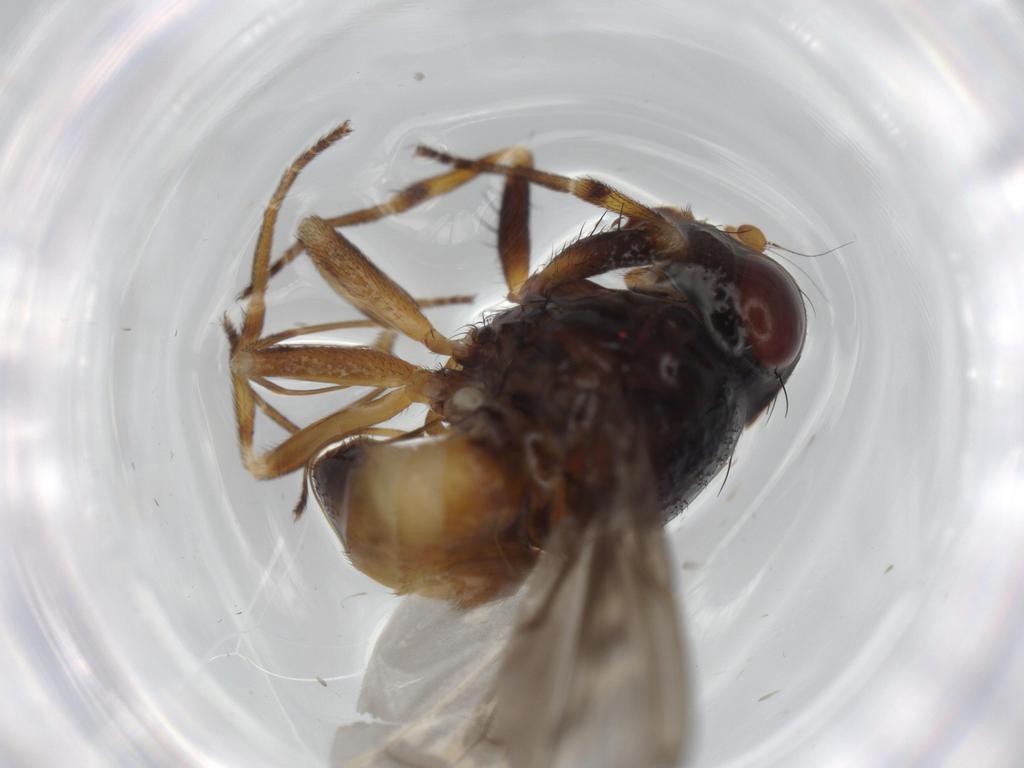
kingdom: Animalia
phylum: Arthropoda
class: Insecta
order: Diptera
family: Odiniidae
